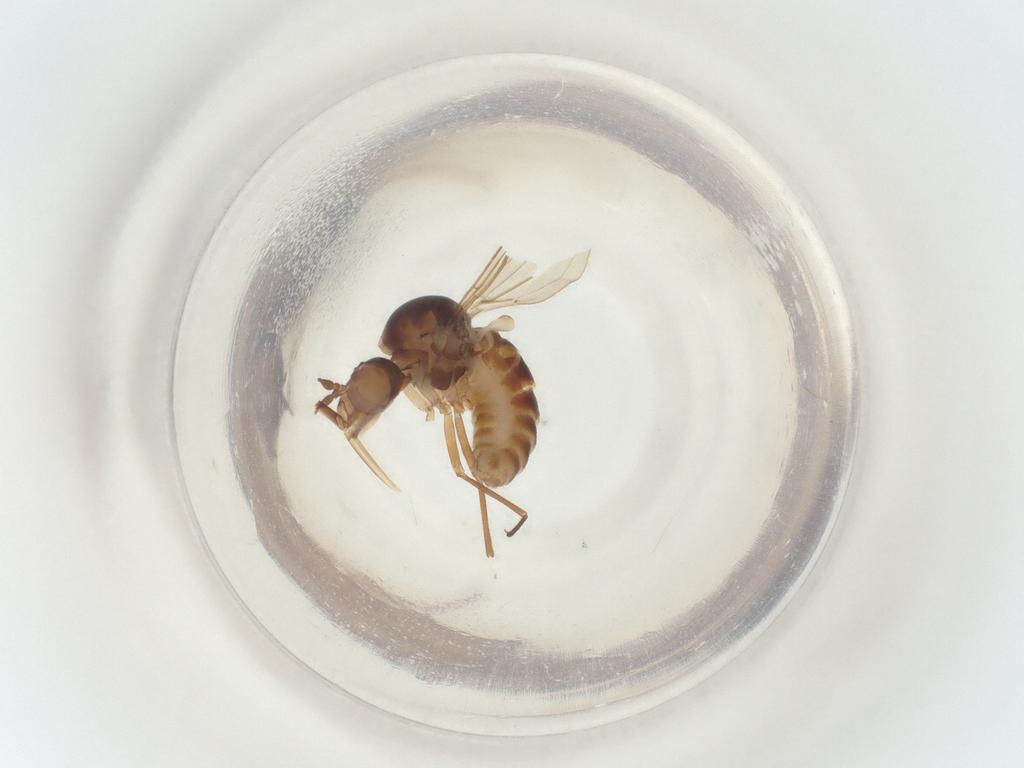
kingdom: Animalia
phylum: Arthropoda
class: Insecta
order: Diptera
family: Mythicomyiidae
